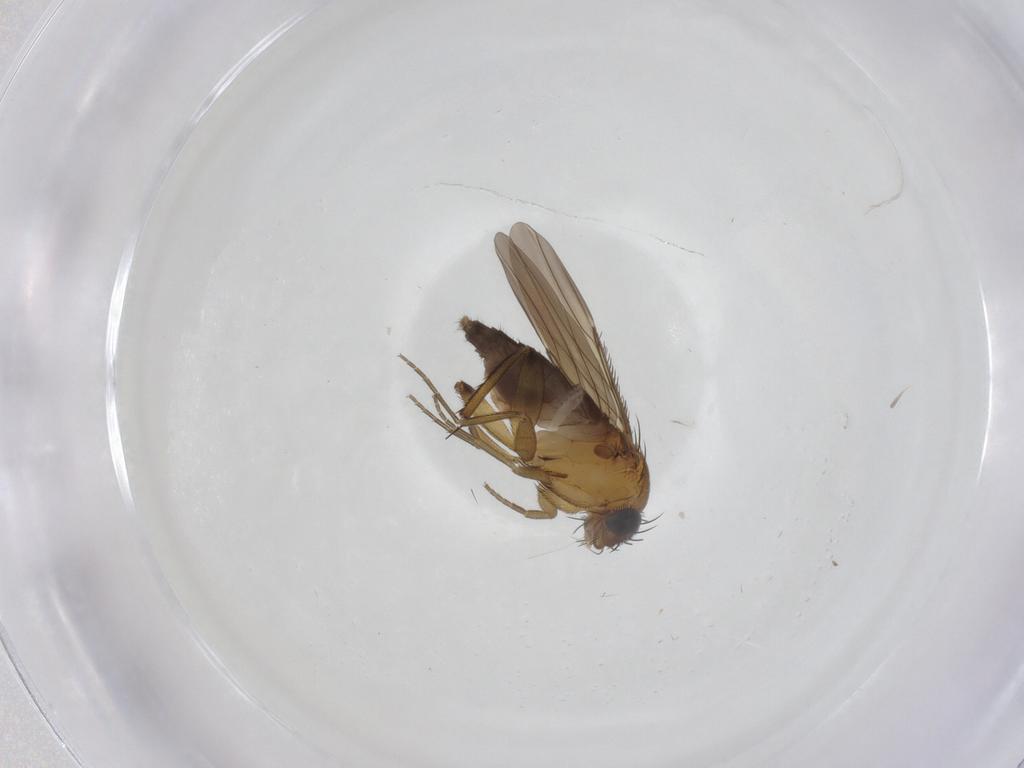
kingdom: Animalia
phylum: Arthropoda
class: Insecta
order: Diptera
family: Phoridae
